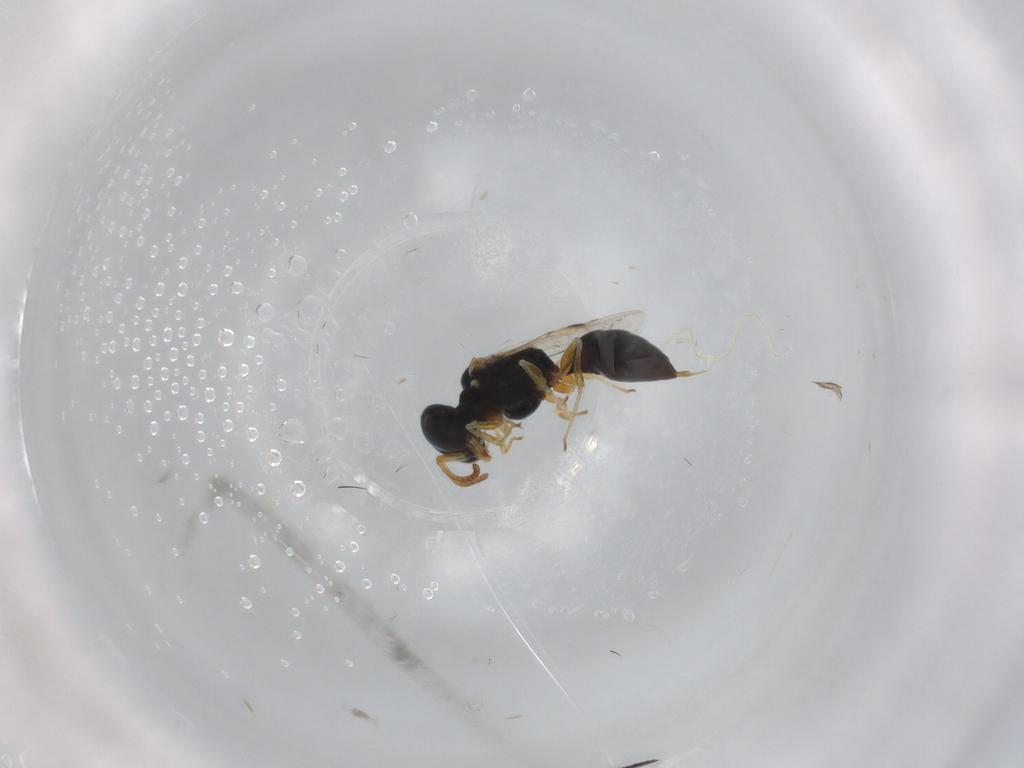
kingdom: Animalia
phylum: Arthropoda
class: Insecta
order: Hymenoptera
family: Pemphredonidae
